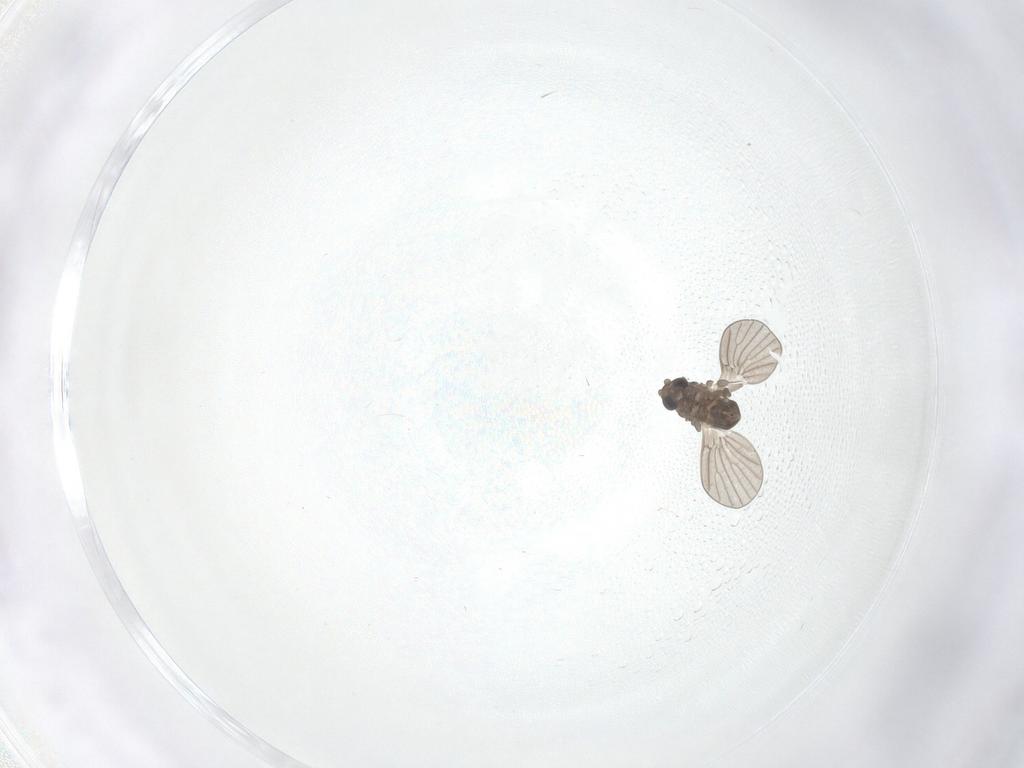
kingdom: Animalia
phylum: Arthropoda
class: Insecta
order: Diptera
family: Psychodidae
